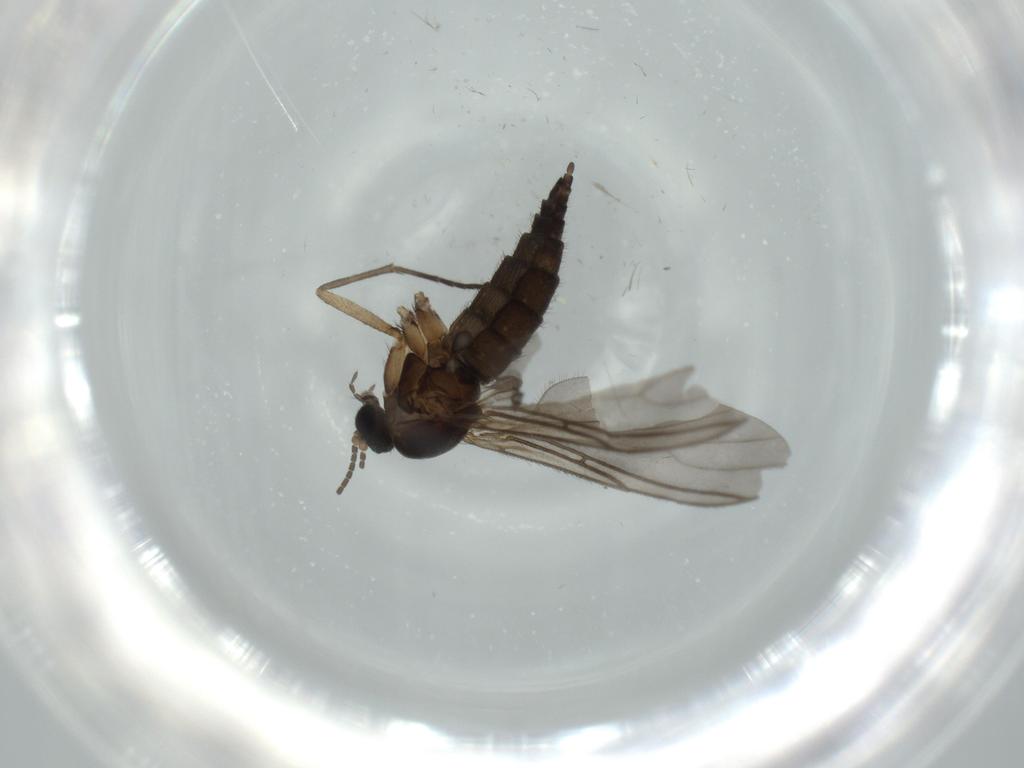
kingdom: Animalia
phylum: Arthropoda
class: Insecta
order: Diptera
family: Sciaridae
